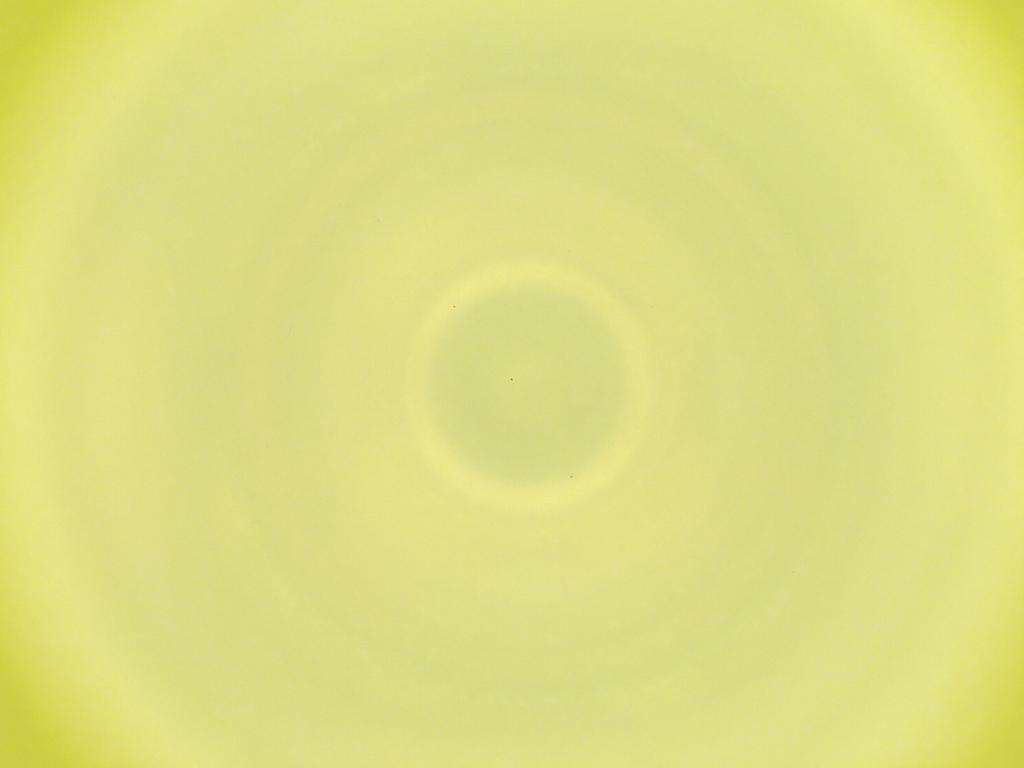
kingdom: Animalia
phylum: Arthropoda
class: Insecta
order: Diptera
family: Cecidomyiidae
